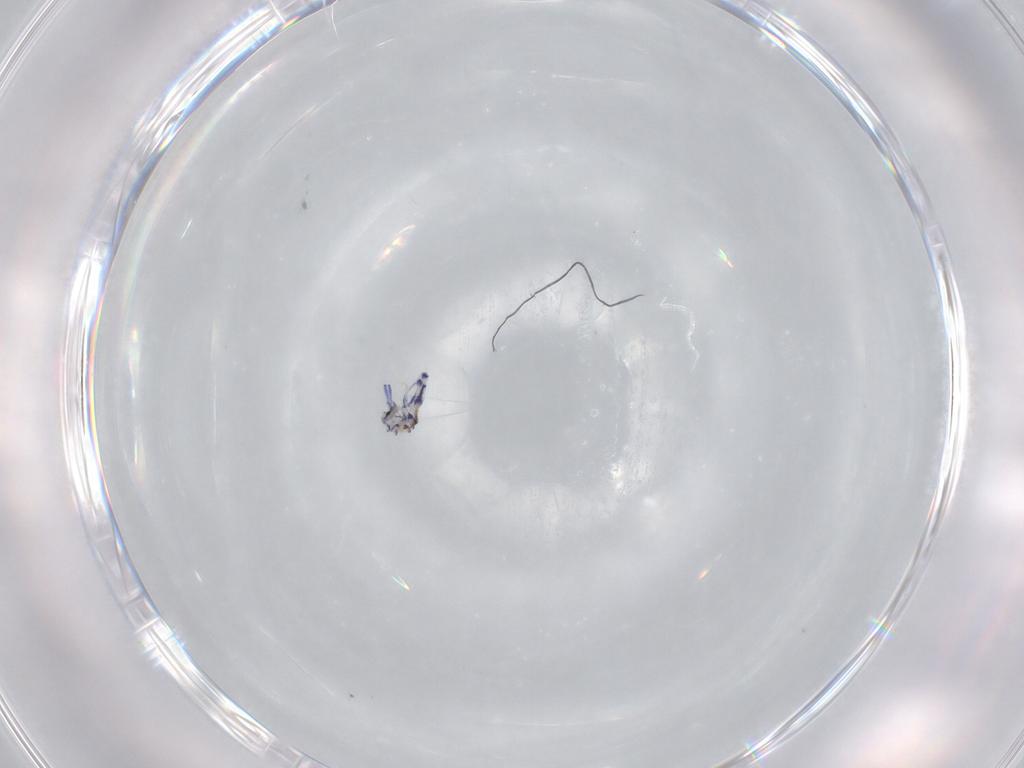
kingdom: Animalia
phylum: Arthropoda
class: Collembola
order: Entomobryomorpha
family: Entomobryidae
